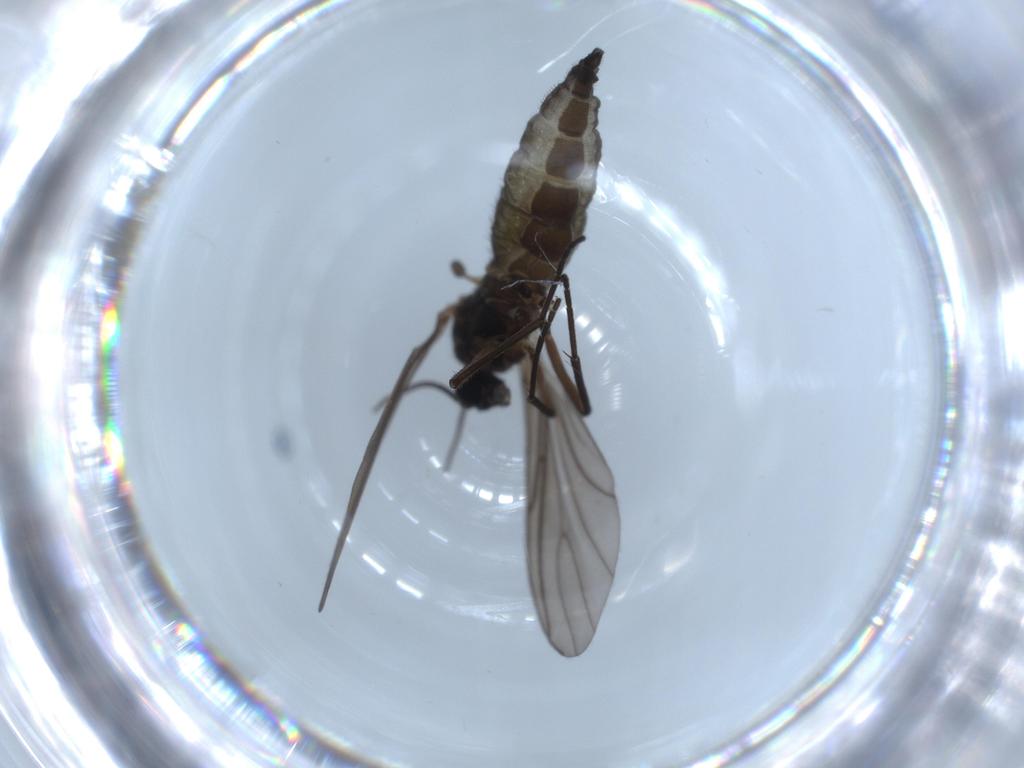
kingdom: Animalia
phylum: Arthropoda
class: Insecta
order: Diptera
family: Sciaridae
